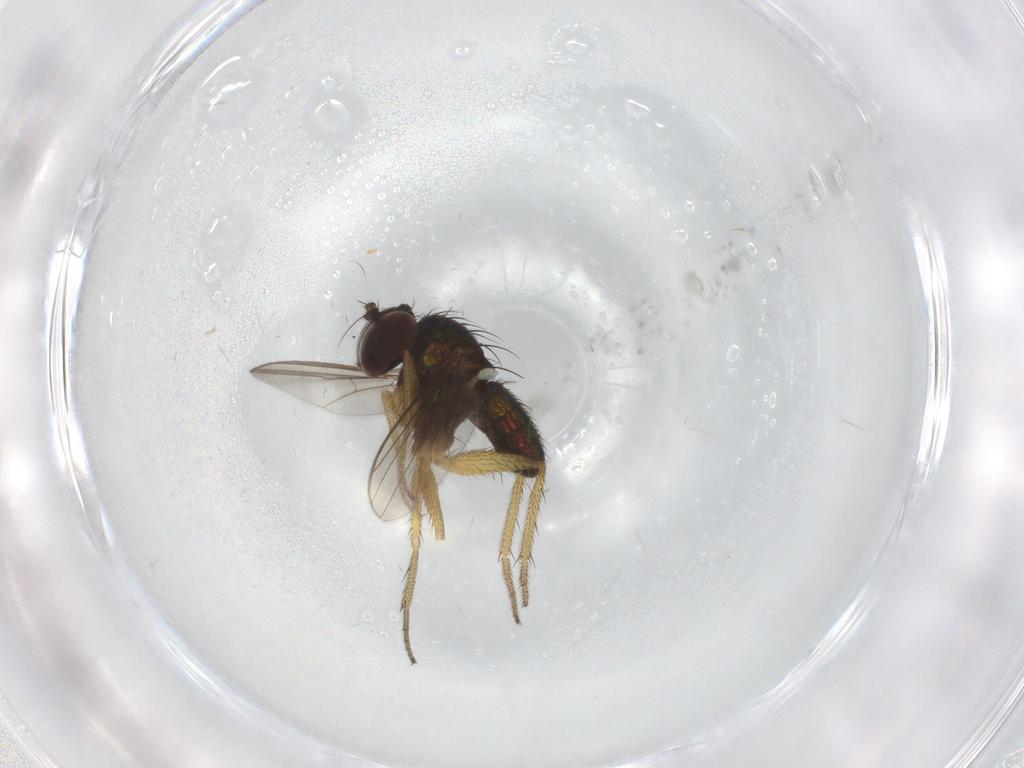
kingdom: Animalia
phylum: Arthropoda
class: Insecta
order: Diptera
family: Dolichopodidae
